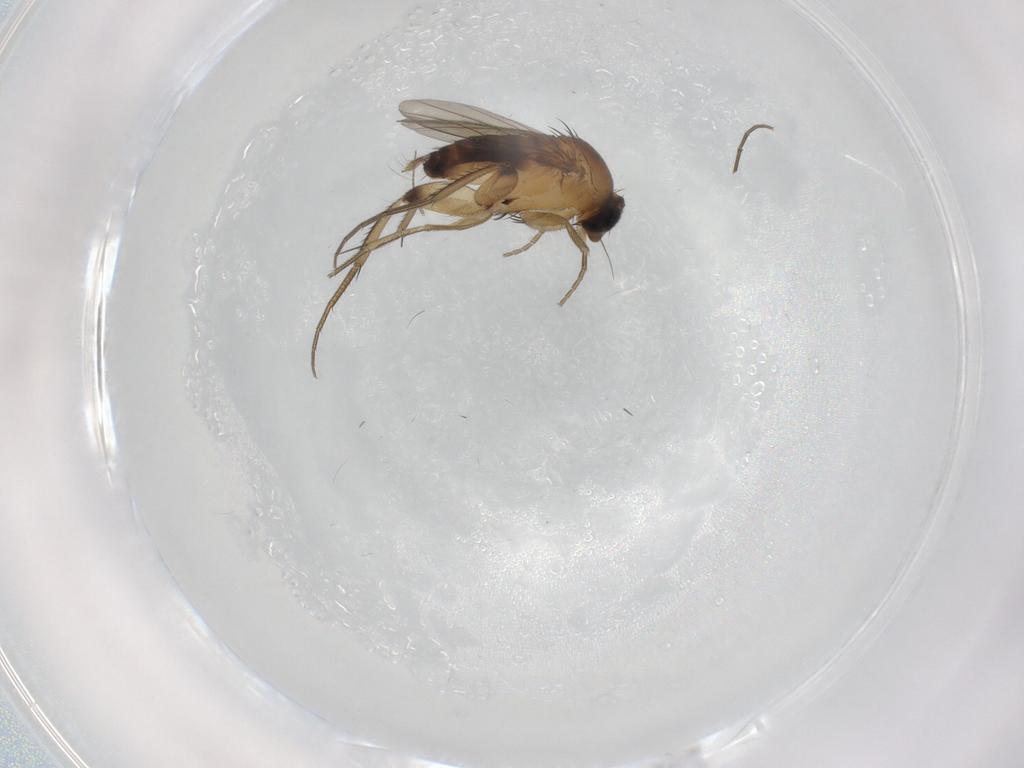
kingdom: Animalia
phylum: Arthropoda
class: Insecta
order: Diptera
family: Phoridae
